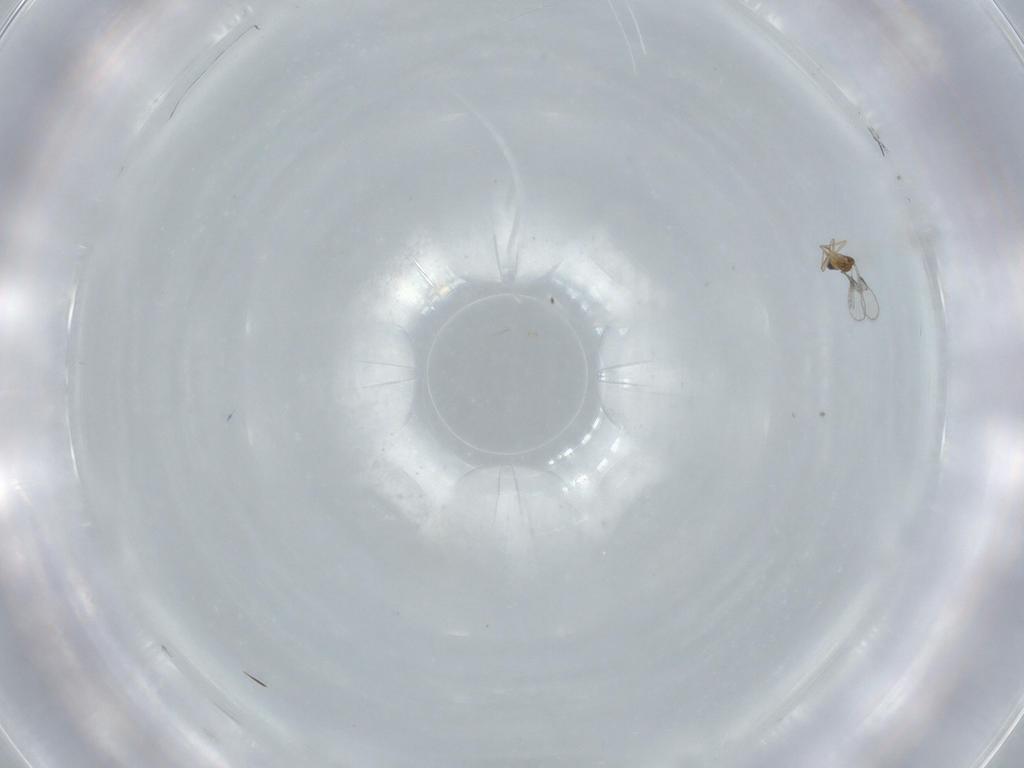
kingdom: Animalia
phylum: Arthropoda
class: Insecta
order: Hymenoptera
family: Trichogrammatidae
